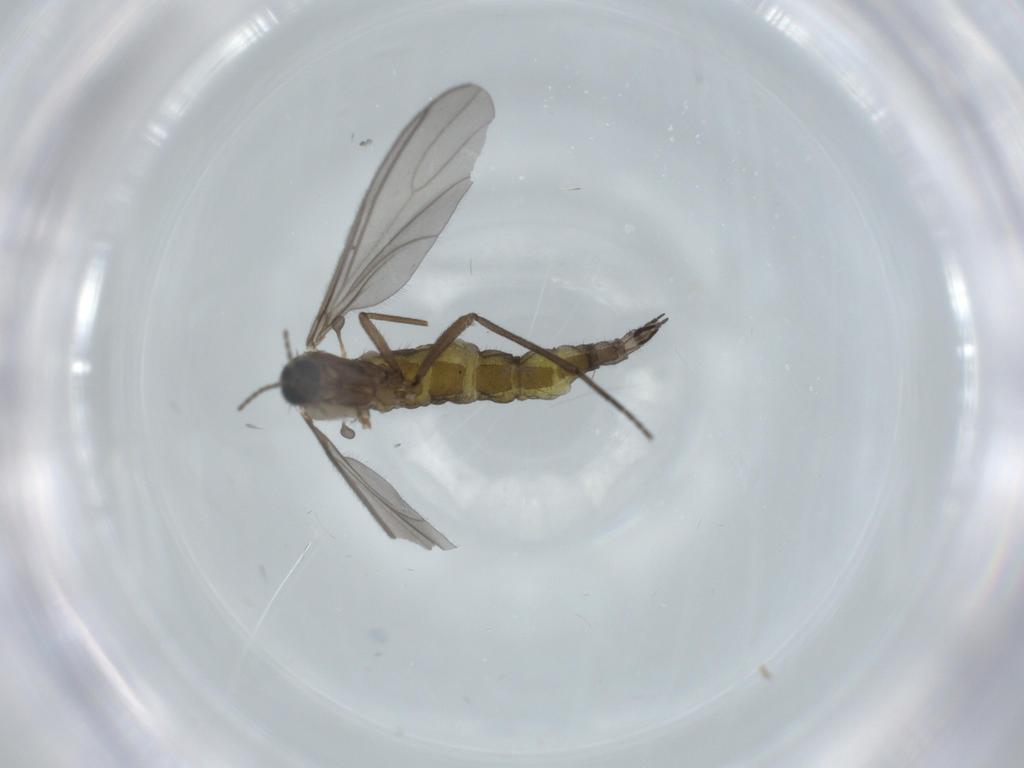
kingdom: Animalia
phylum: Arthropoda
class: Insecta
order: Diptera
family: Sciaridae
